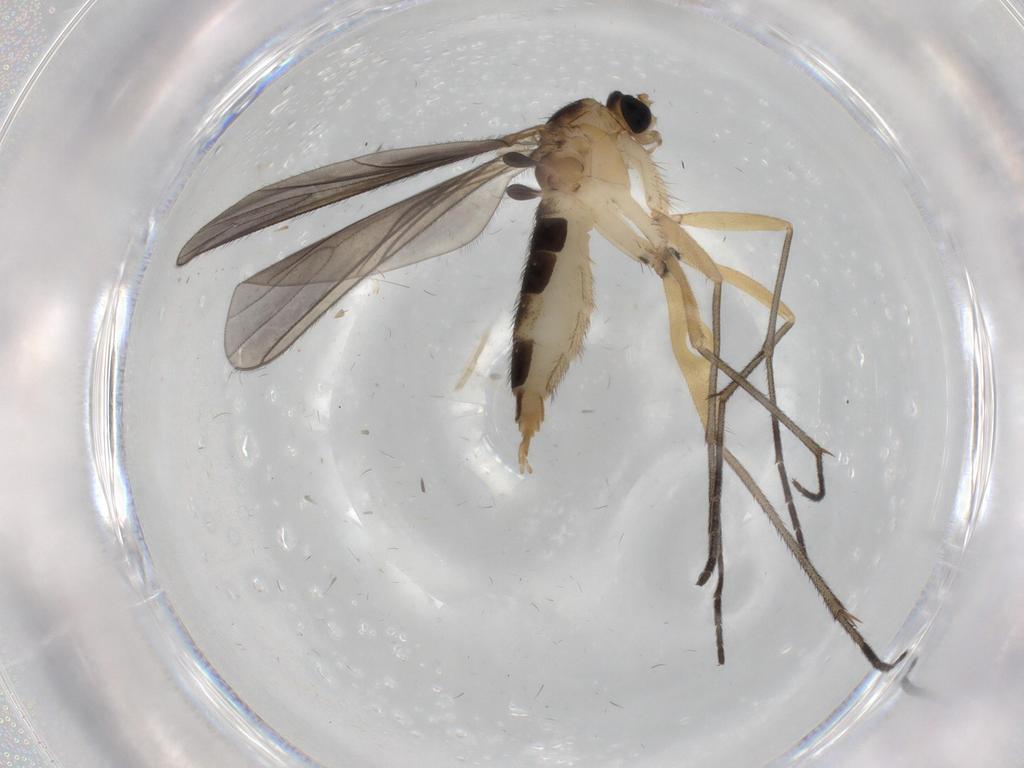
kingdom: Animalia
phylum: Arthropoda
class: Insecta
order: Diptera
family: Sciaridae
